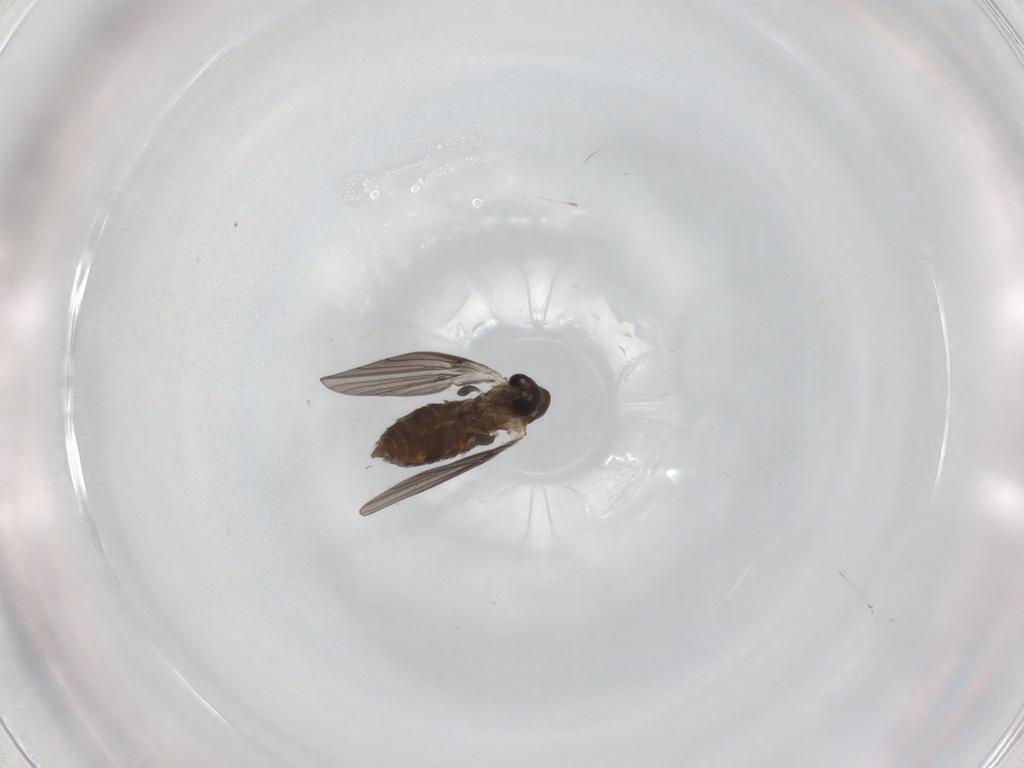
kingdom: Animalia
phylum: Arthropoda
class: Insecta
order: Diptera
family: Psychodidae
